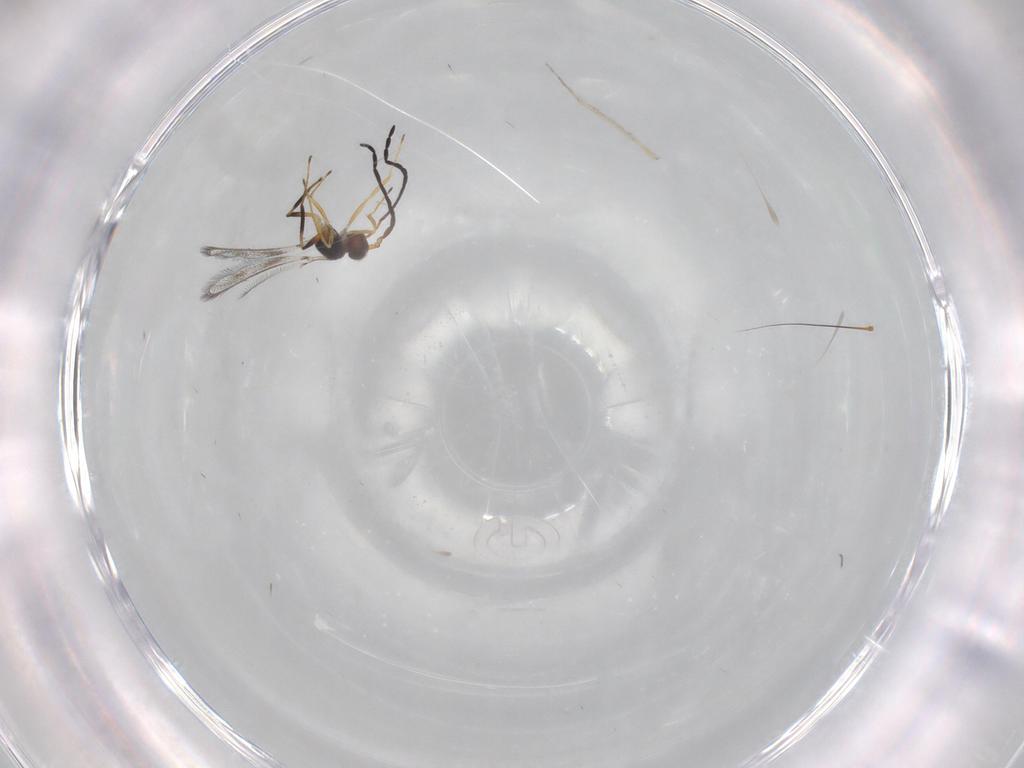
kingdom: Animalia
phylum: Arthropoda
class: Insecta
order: Hymenoptera
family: Mymaridae
